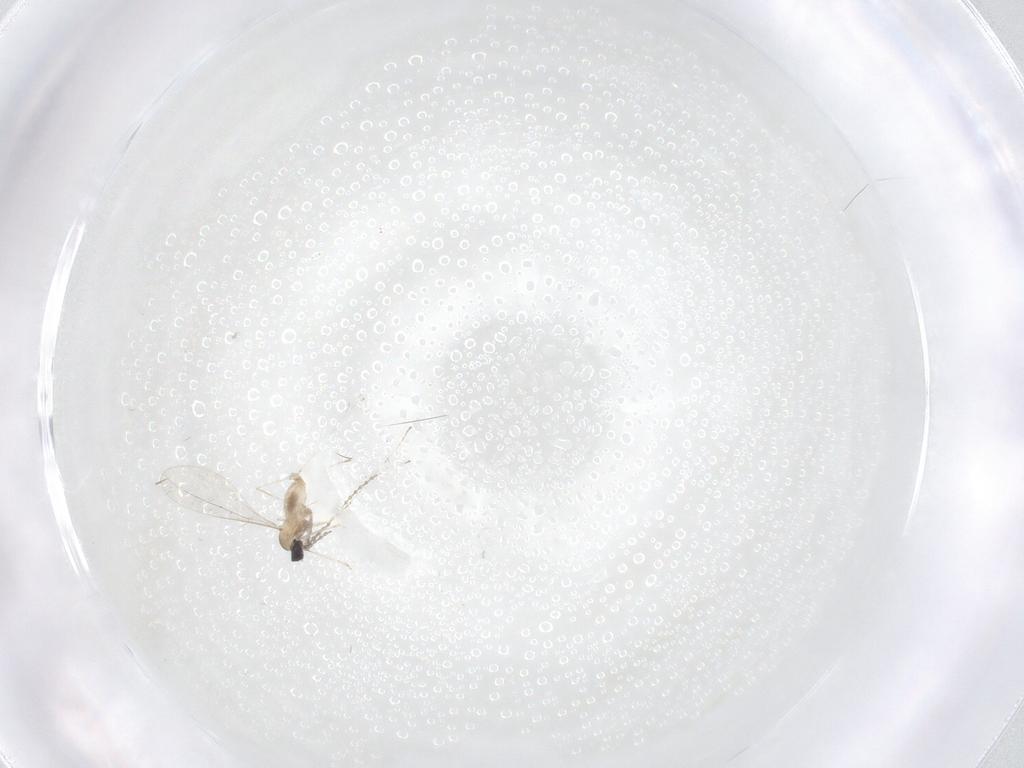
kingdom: Animalia
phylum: Arthropoda
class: Insecta
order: Diptera
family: Cecidomyiidae
